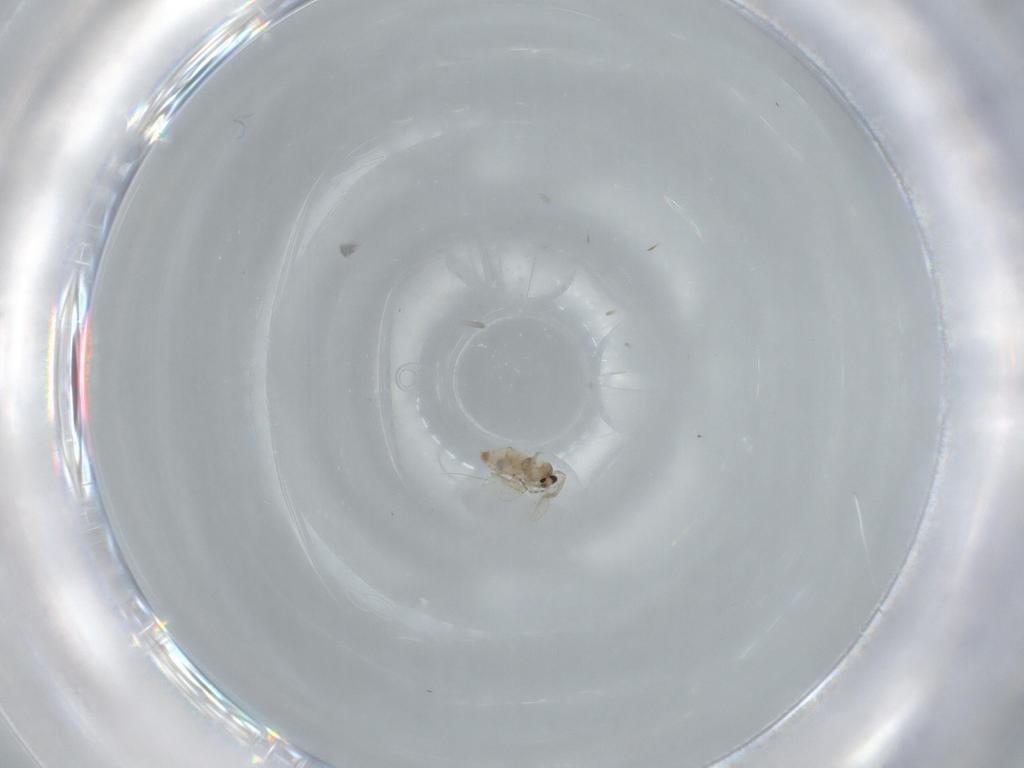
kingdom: Animalia
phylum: Arthropoda
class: Insecta
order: Diptera
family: Cecidomyiidae
